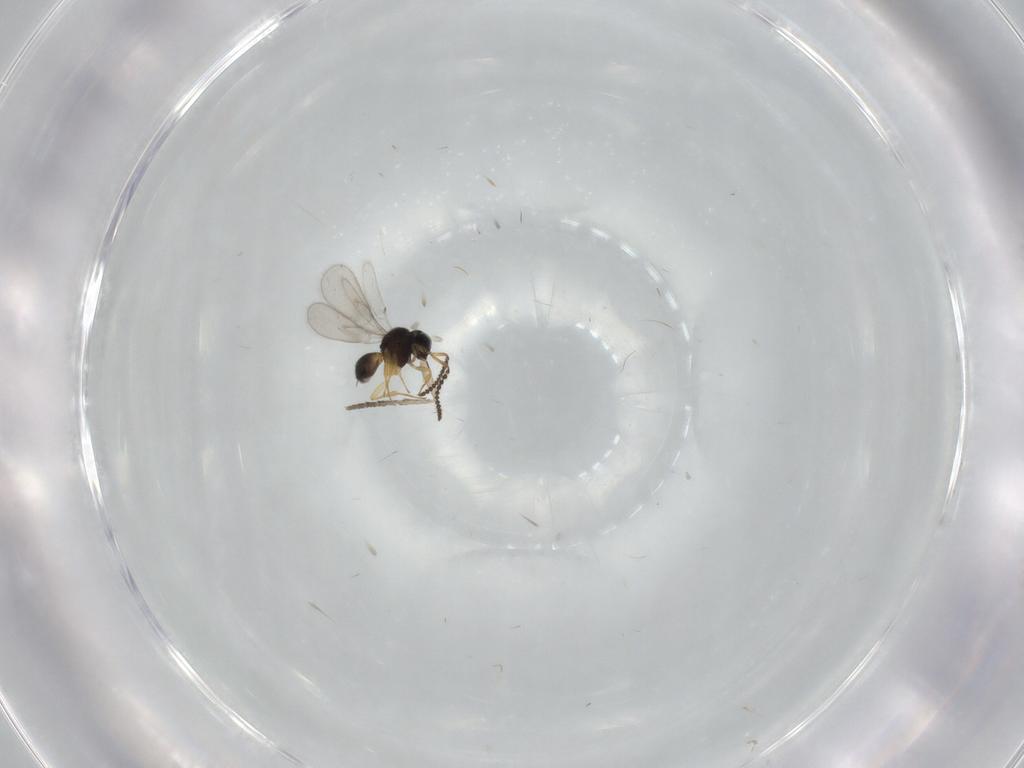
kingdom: Animalia
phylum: Arthropoda
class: Insecta
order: Hymenoptera
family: Scelionidae
